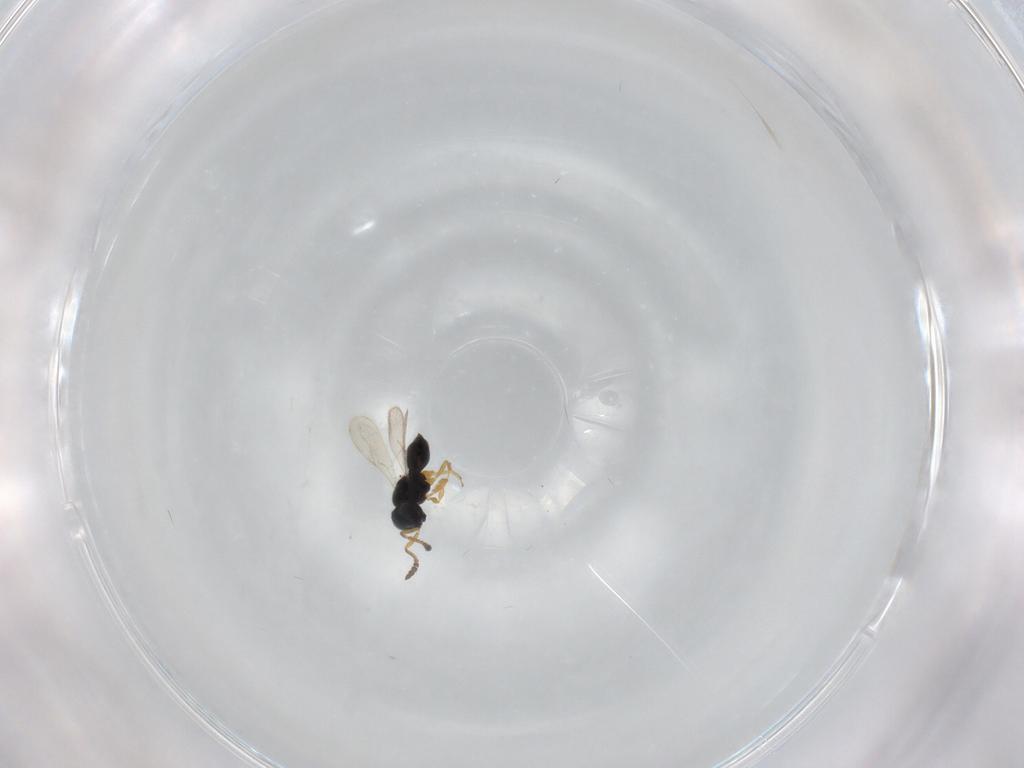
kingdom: Animalia
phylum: Arthropoda
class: Insecta
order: Hymenoptera
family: Scelionidae
